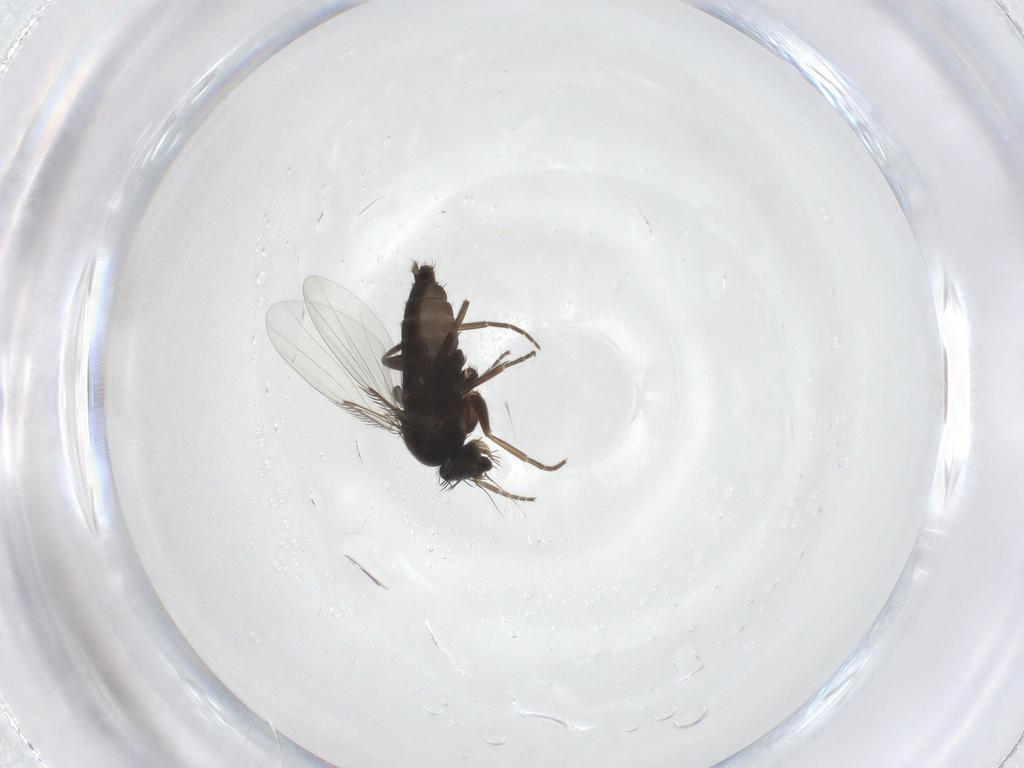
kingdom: Animalia
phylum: Arthropoda
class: Insecta
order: Diptera
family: Phoridae
